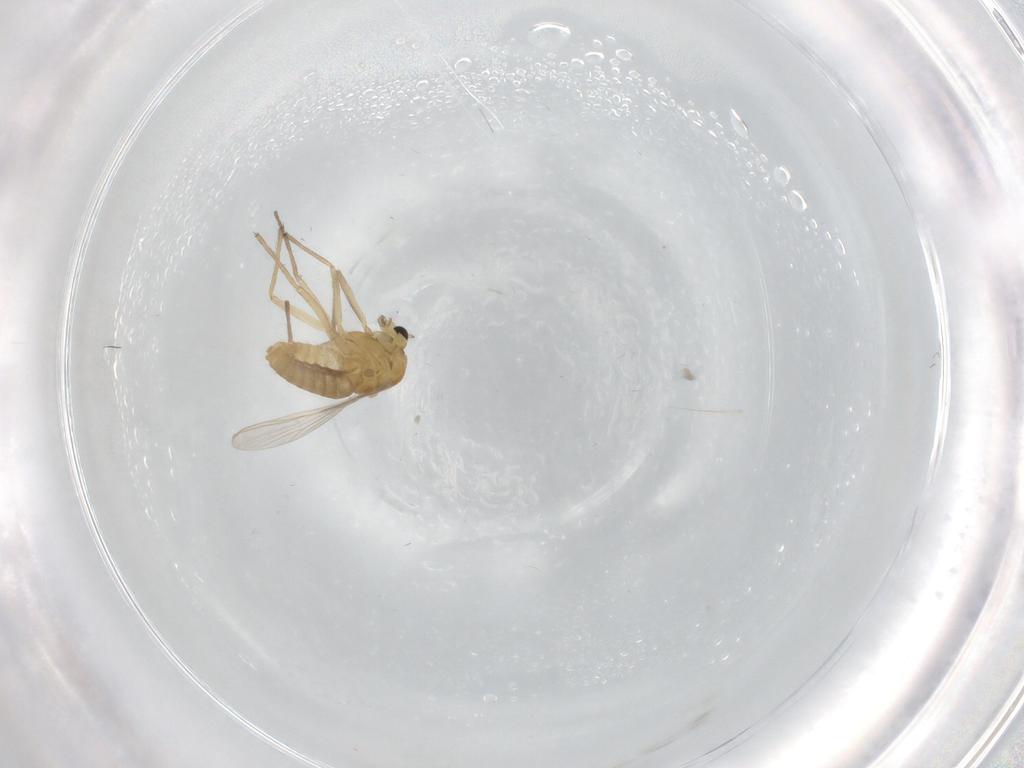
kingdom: Animalia
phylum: Arthropoda
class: Insecta
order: Diptera
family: Chironomidae
